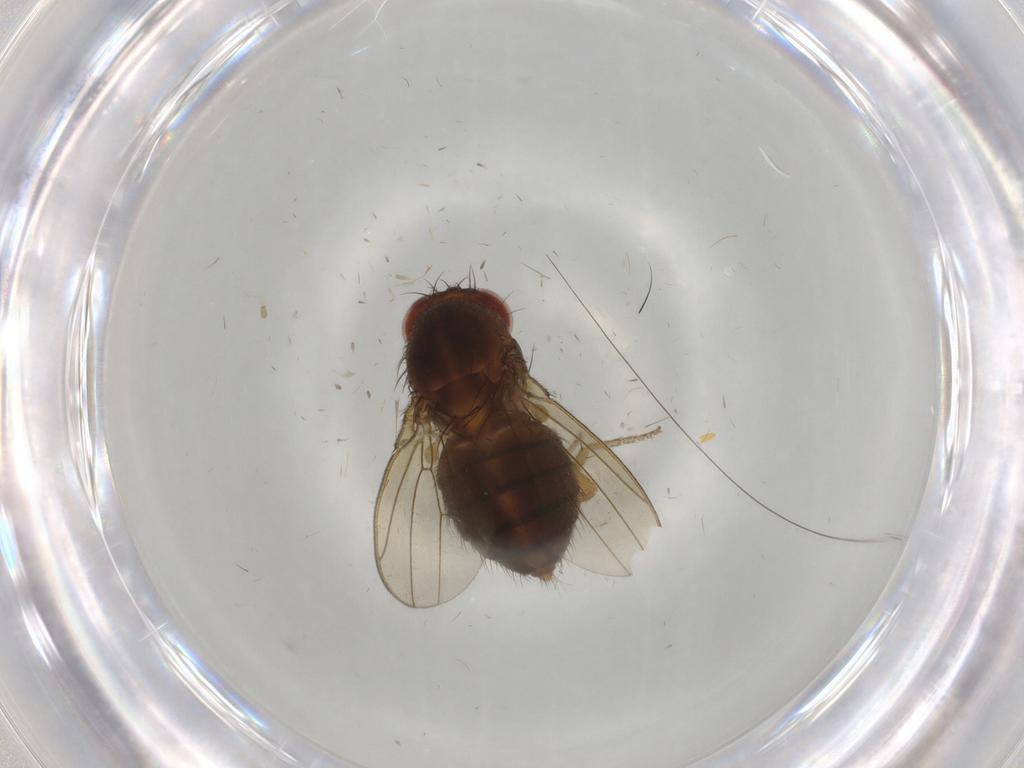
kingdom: Animalia
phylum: Arthropoda
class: Insecta
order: Diptera
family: Drosophilidae
